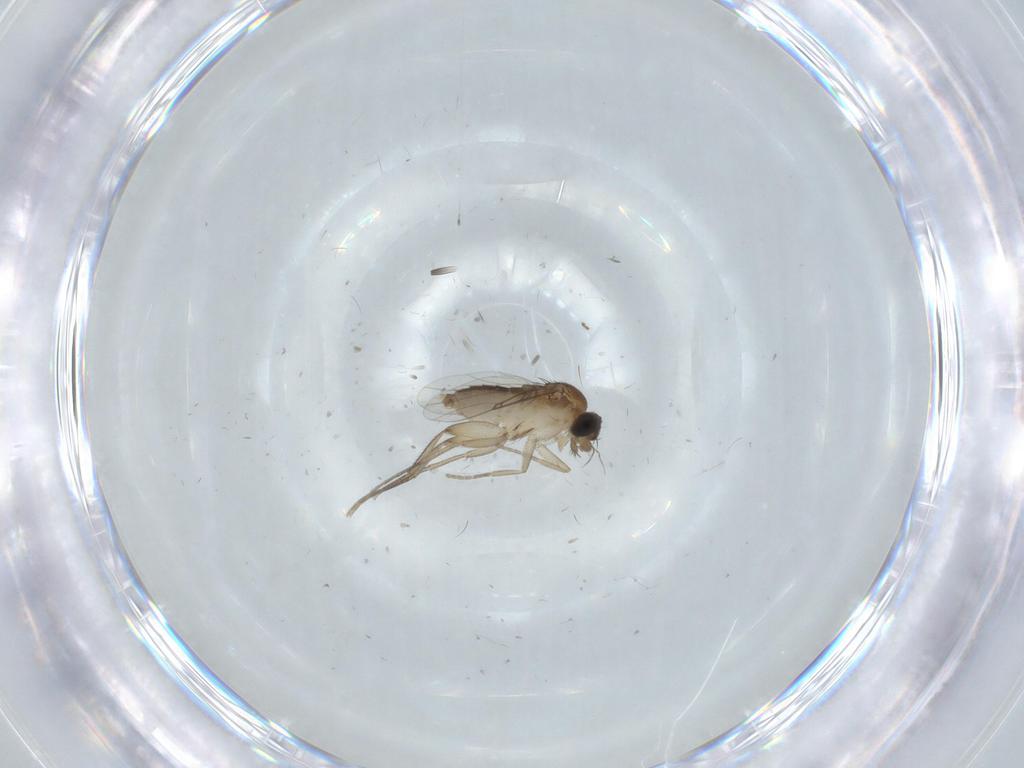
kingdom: Animalia
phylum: Arthropoda
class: Insecta
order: Diptera
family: Phoridae
